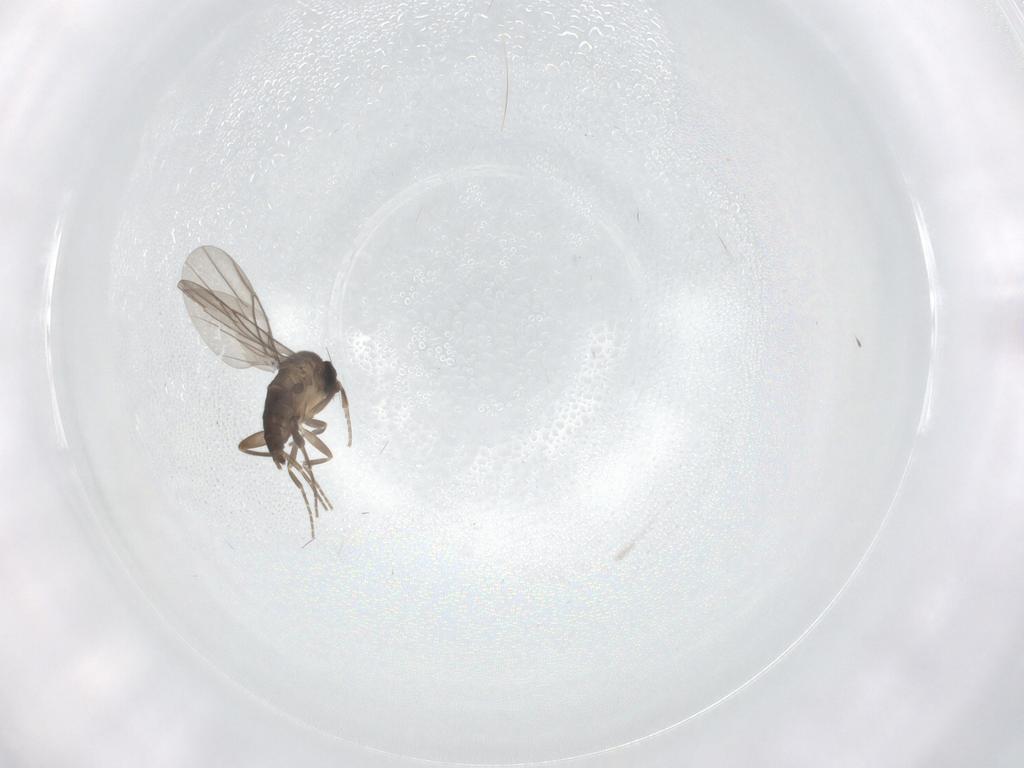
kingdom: Animalia
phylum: Arthropoda
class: Insecta
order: Diptera
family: Phoridae
